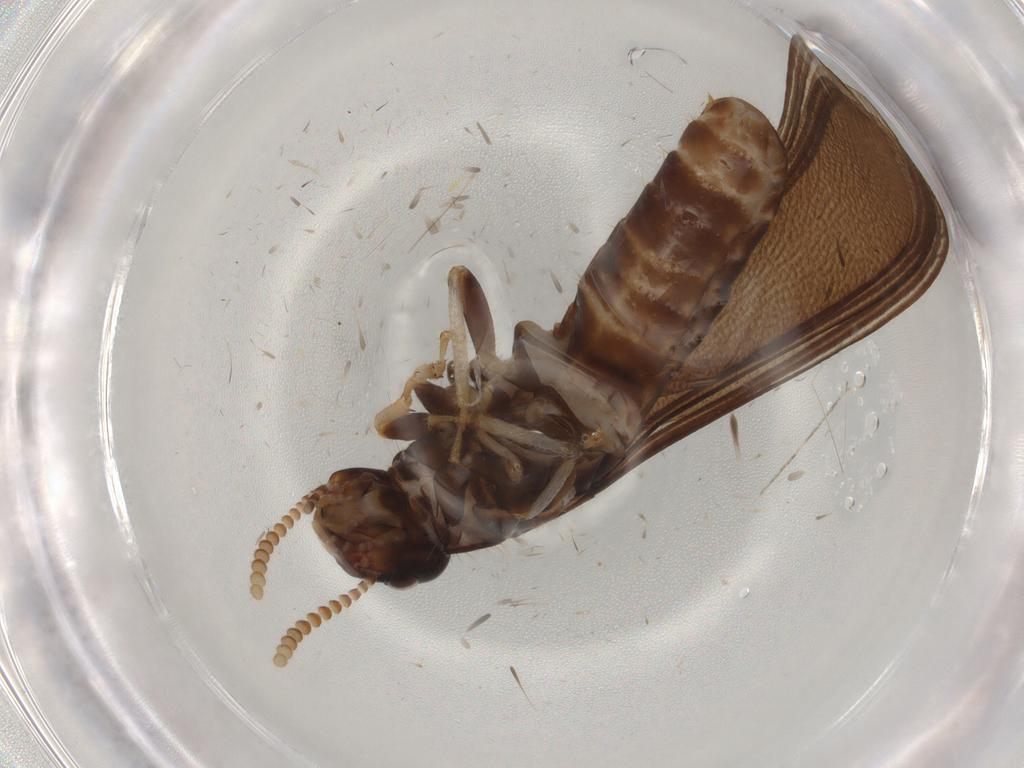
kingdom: Animalia
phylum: Arthropoda
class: Insecta
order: Blattodea
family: Kalotermitidae
